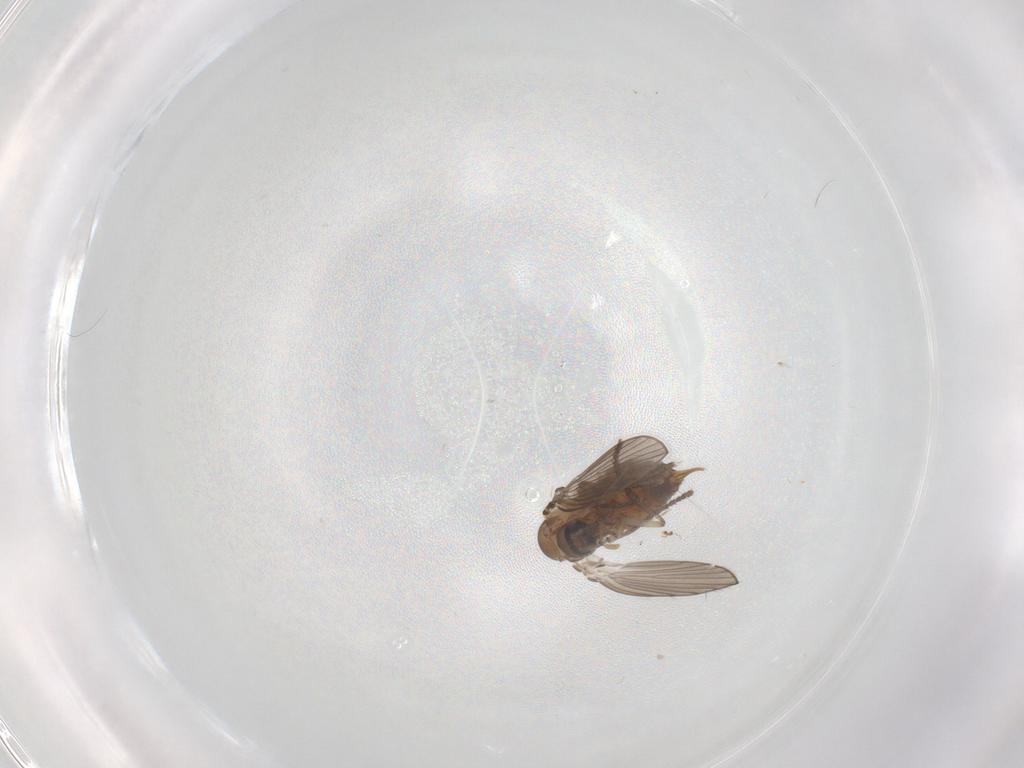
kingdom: Animalia
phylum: Arthropoda
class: Insecta
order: Diptera
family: Psychodidae
